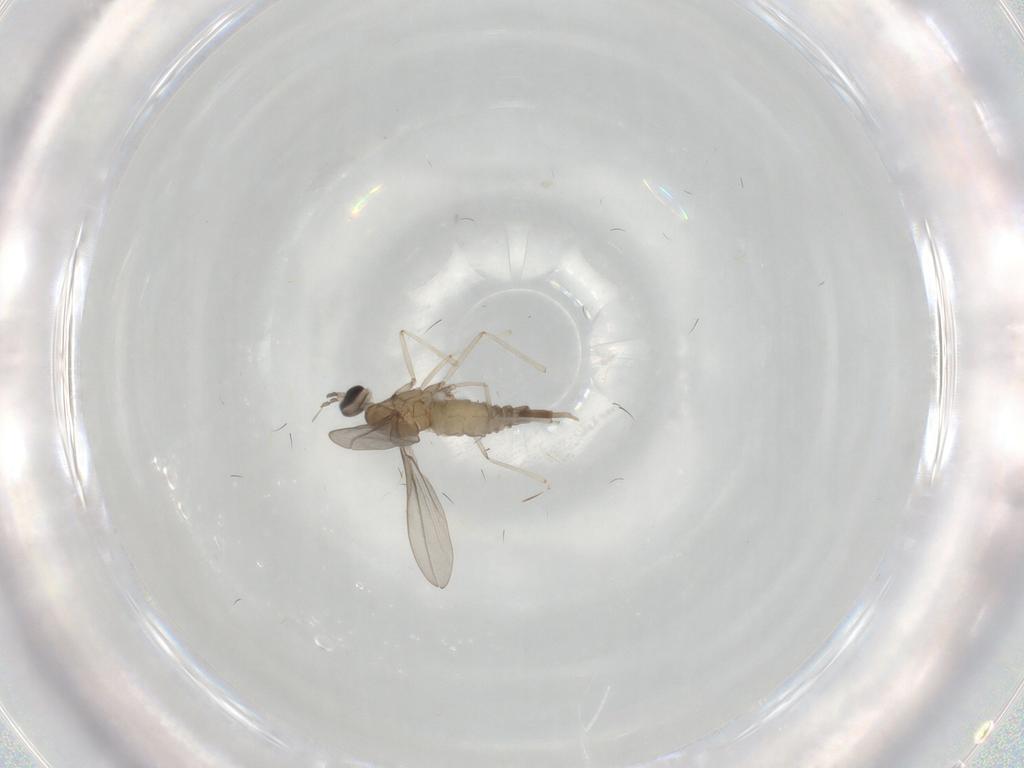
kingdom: Animalia
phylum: Arthropoda
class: Insecta
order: Diptera
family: Cecidomyiidae
